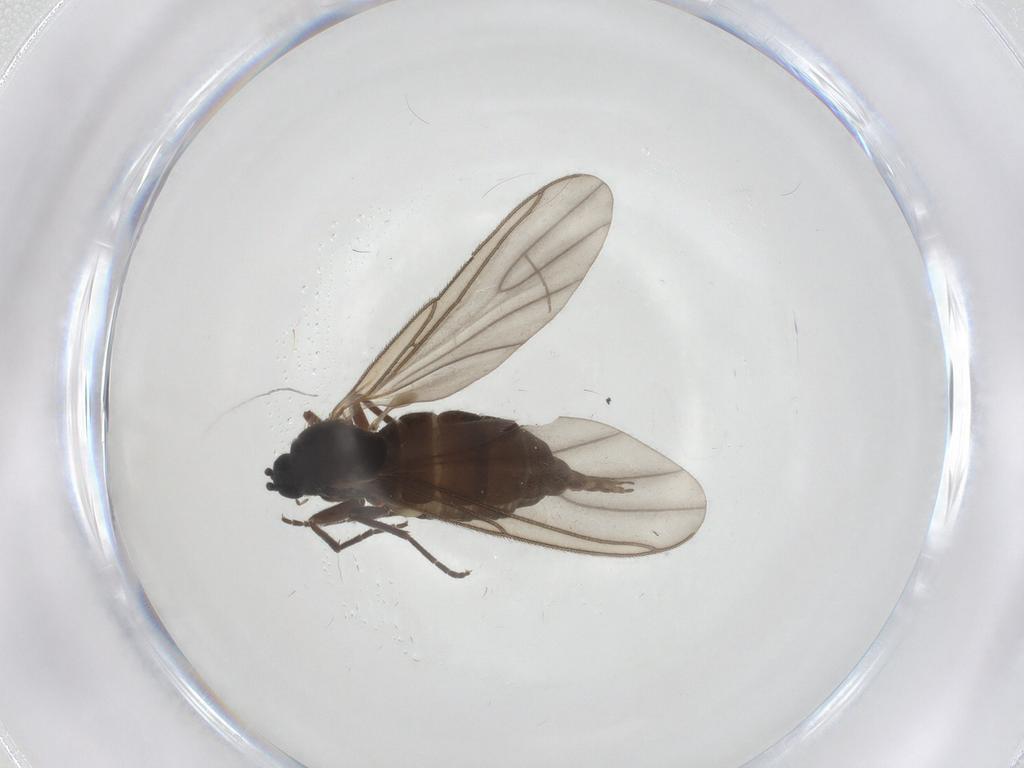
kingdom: Animalia
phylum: Arthropoda
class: Insecta
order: Diptera
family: Sciaridae
